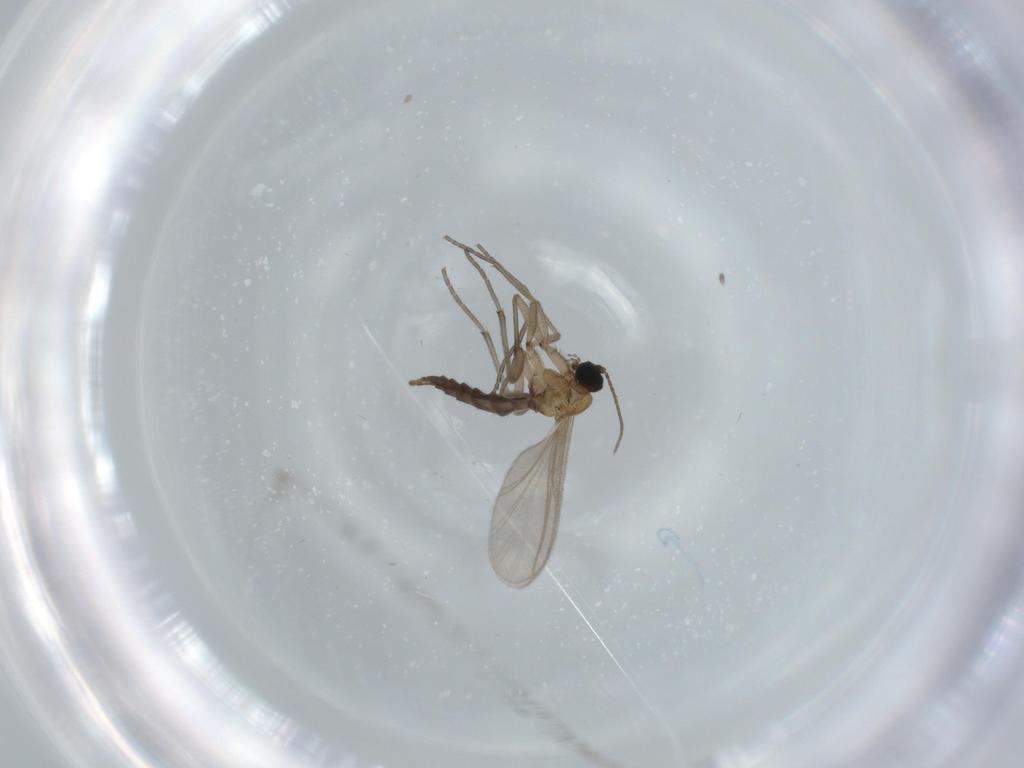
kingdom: Animalia
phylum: Arthropoda
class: Insecta
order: Diptera
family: Sciaridae
